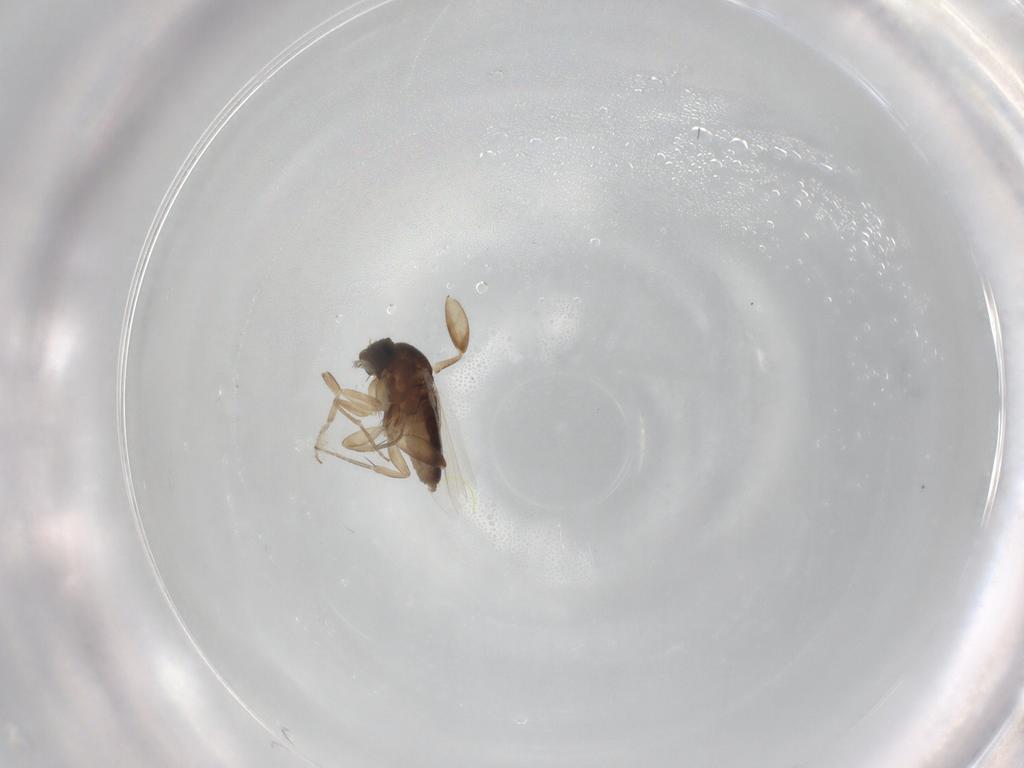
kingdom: Animalia
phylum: Arthropoda
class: Insecta
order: Diptera
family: Phoridae
